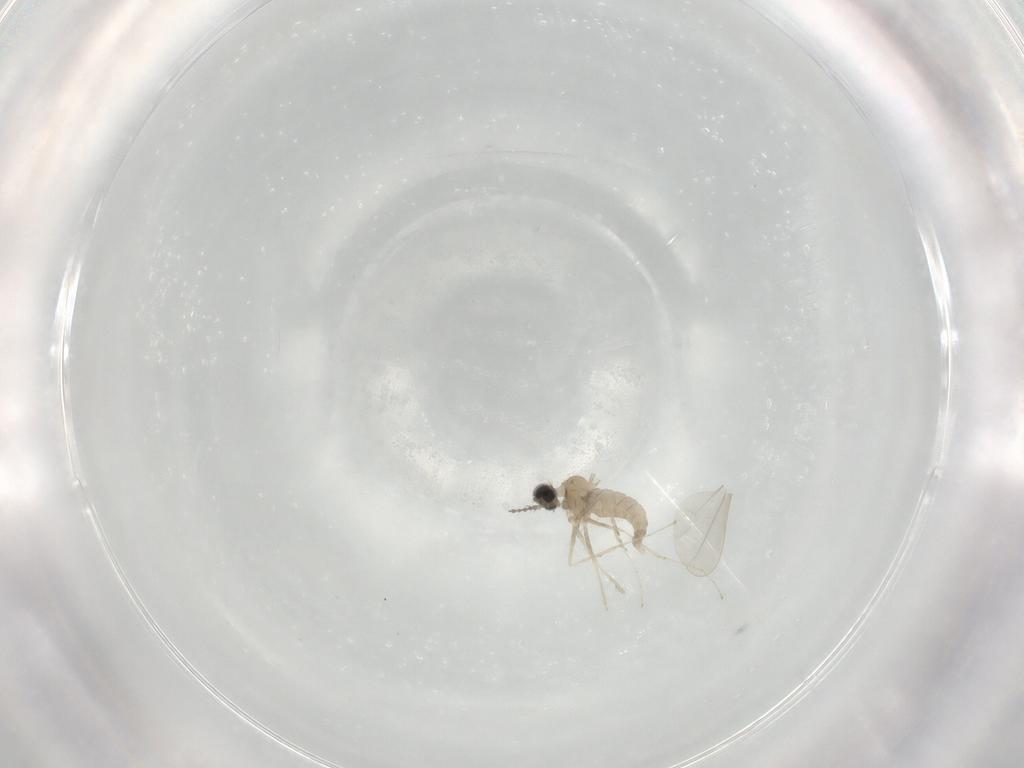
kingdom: Animalia
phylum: Arthropoda
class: Insecta
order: Diptera
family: Cecidomyiidae
